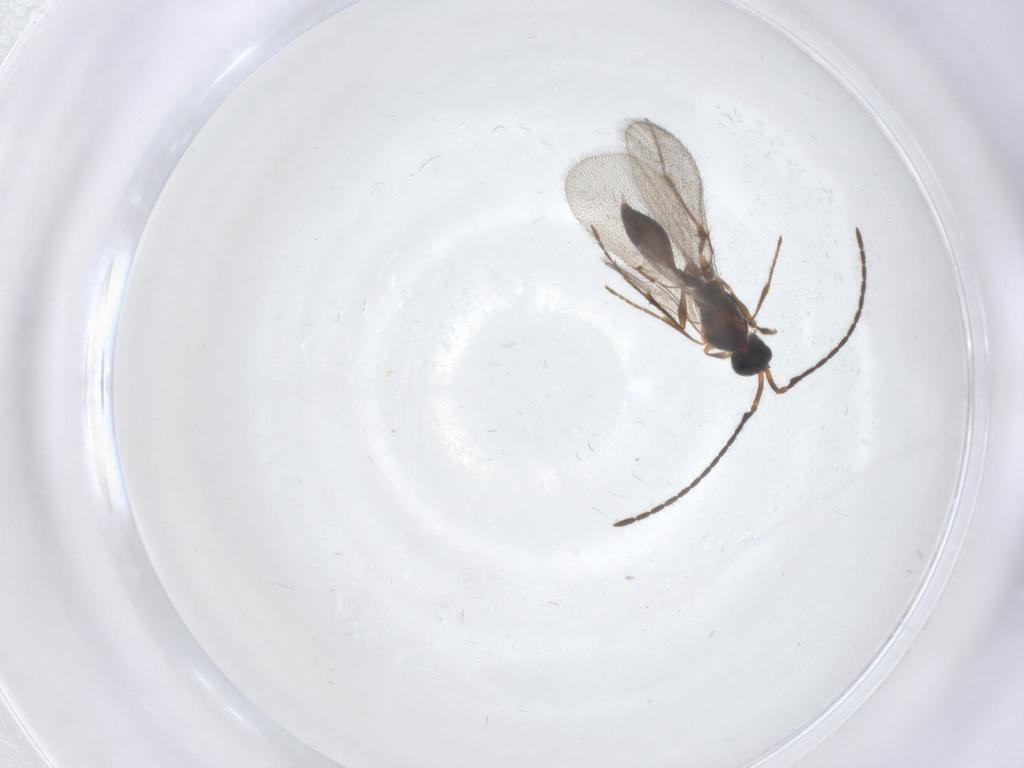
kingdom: Animalia
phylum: Arthropoda
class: Insecta
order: Hymenoptera
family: Diapriidae
